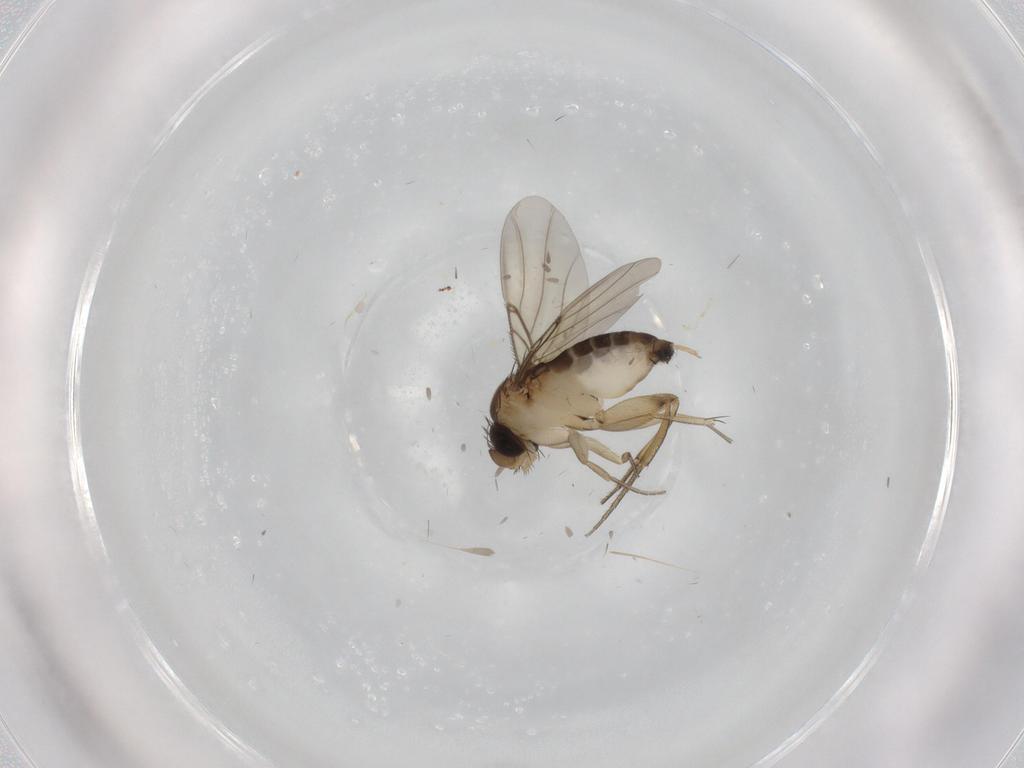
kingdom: Animalia
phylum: Arthropoda
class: Insecta
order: Diptera
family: Phoridae
